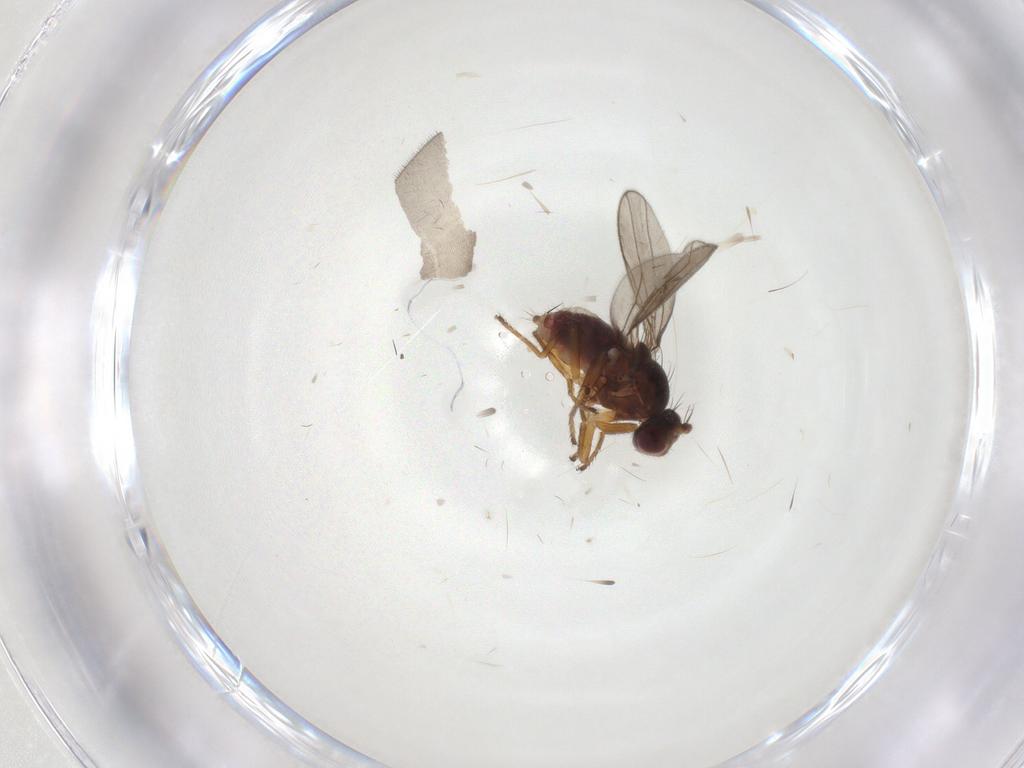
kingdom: Animalia
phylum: Arthropoda
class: Insecta
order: Diptera
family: Ephydridae
